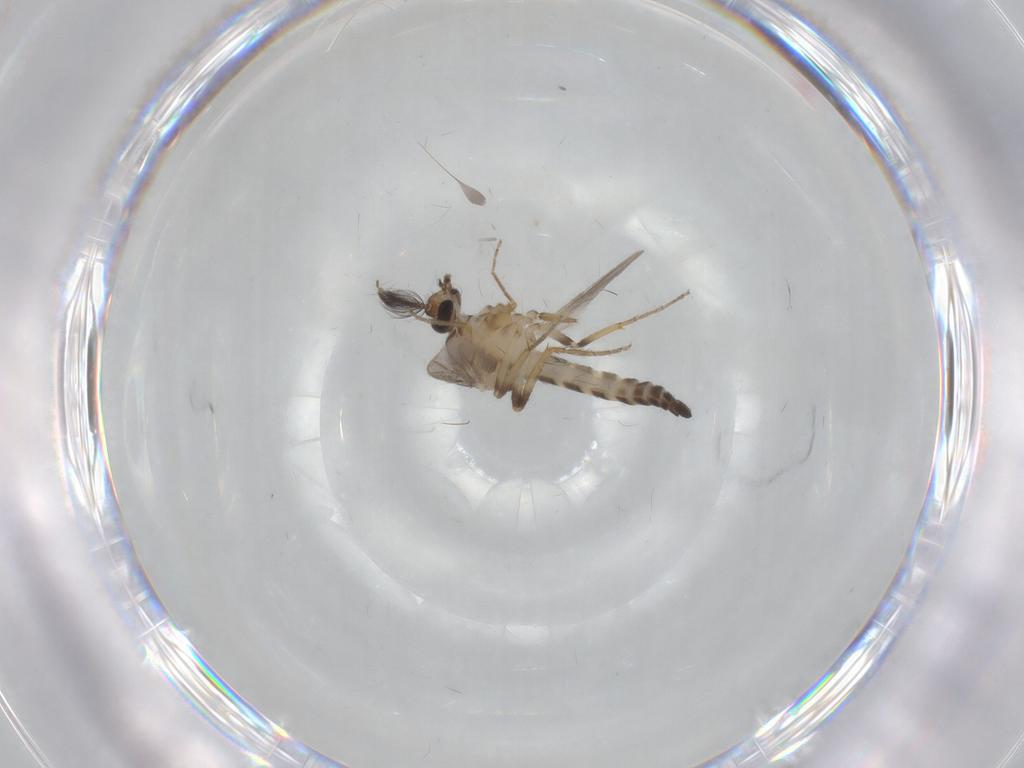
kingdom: Animalia
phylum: Arthropoda
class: Insecta
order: Diptera
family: Ceratopogonidae
